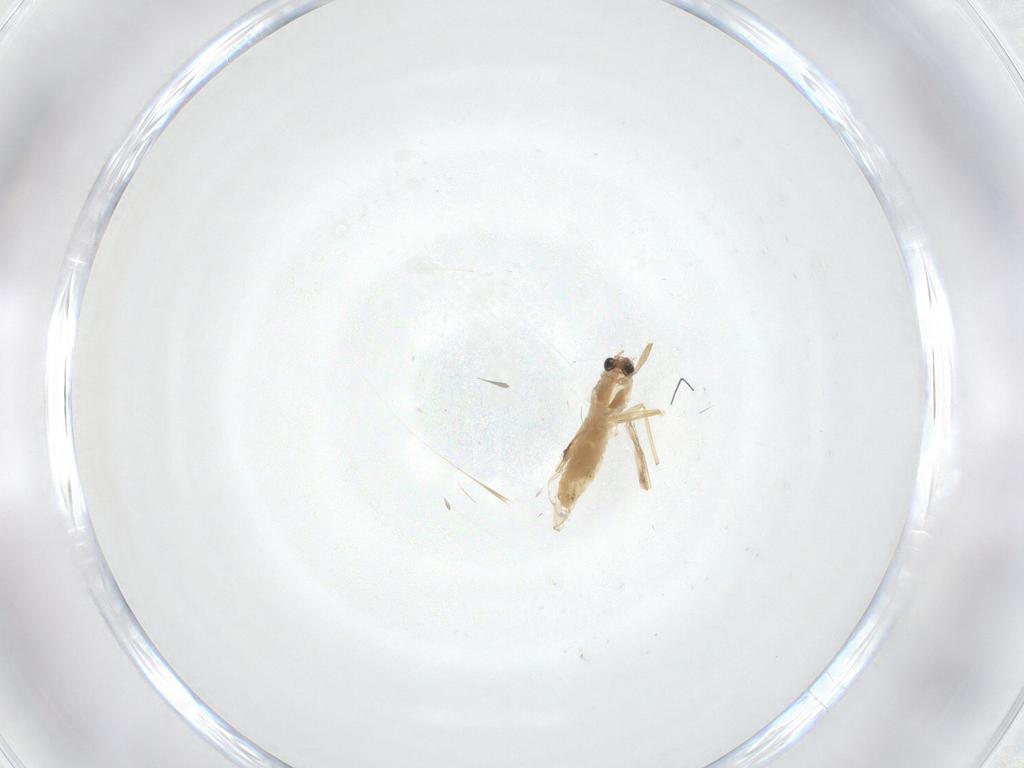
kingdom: Animalia
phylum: Arthropoda
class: Insecta
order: Diptera
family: Chironomidae
